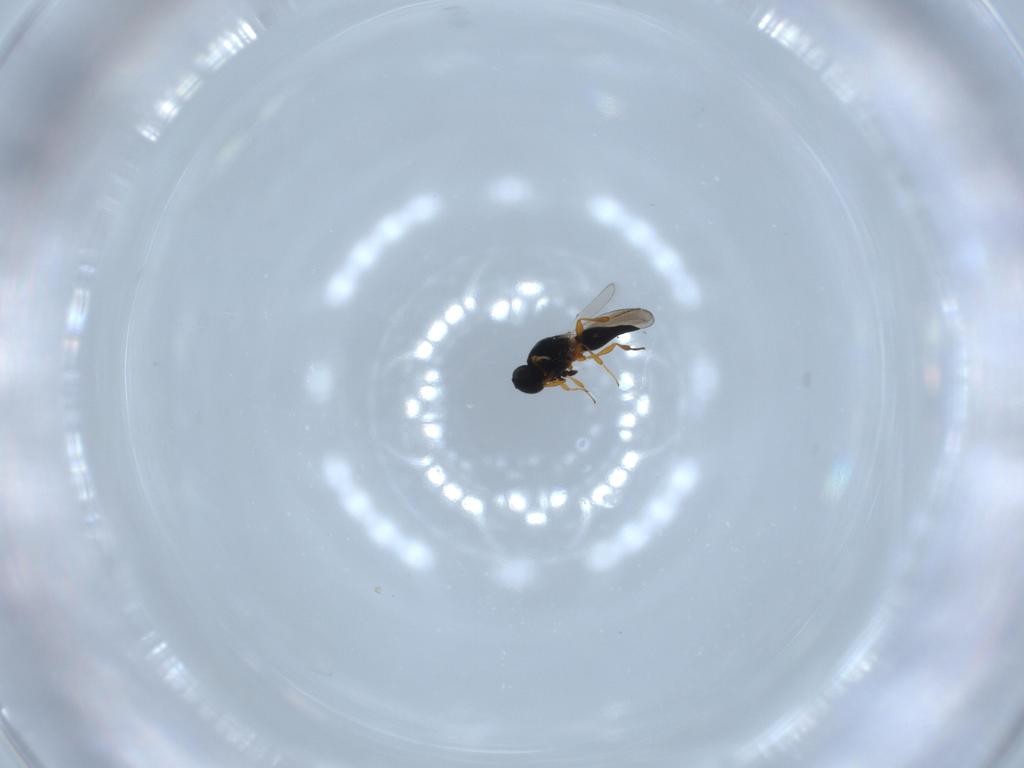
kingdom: Animalia
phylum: Arthropoda
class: Insecta
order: Hymenoptera
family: Platygastridae
